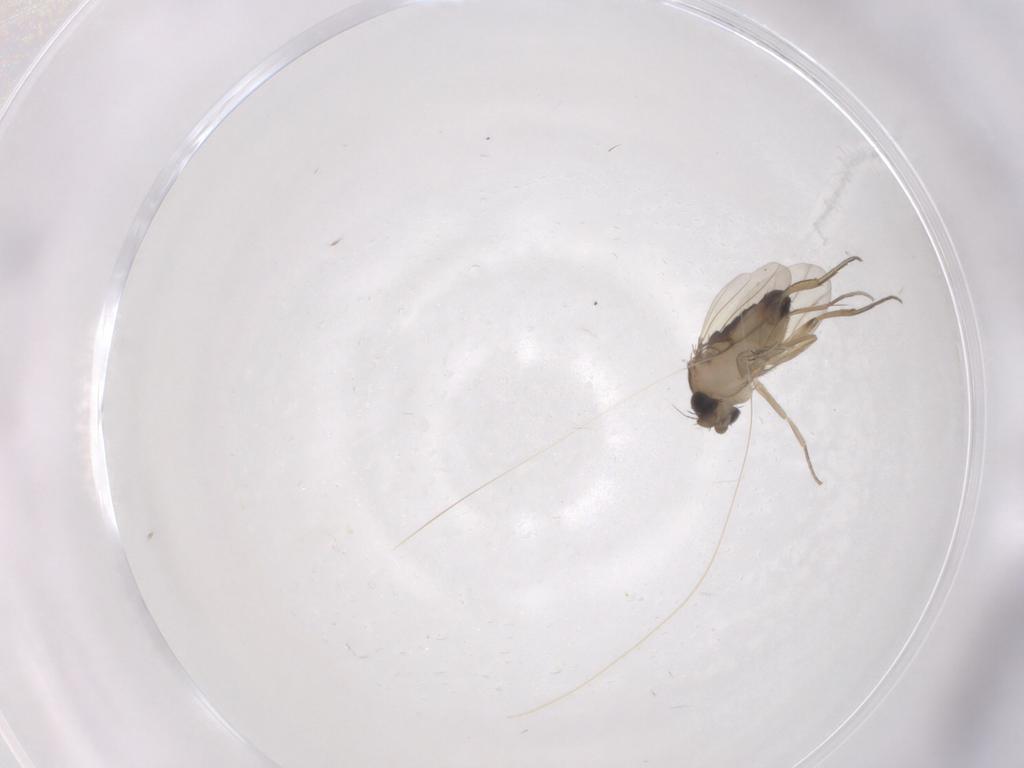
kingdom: Animalia
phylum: Arthropoda
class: Insecta
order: Diptera
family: Phoridae
